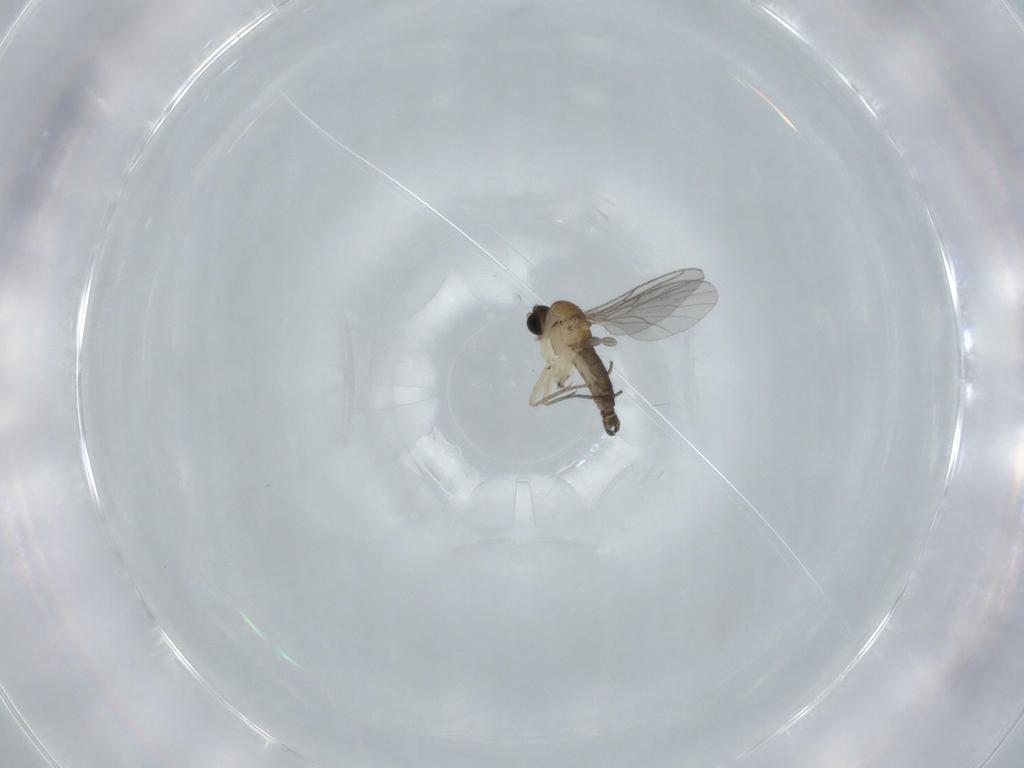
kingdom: Animalia
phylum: Arthropoda
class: Insecta
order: Diptera
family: Sciaridae
